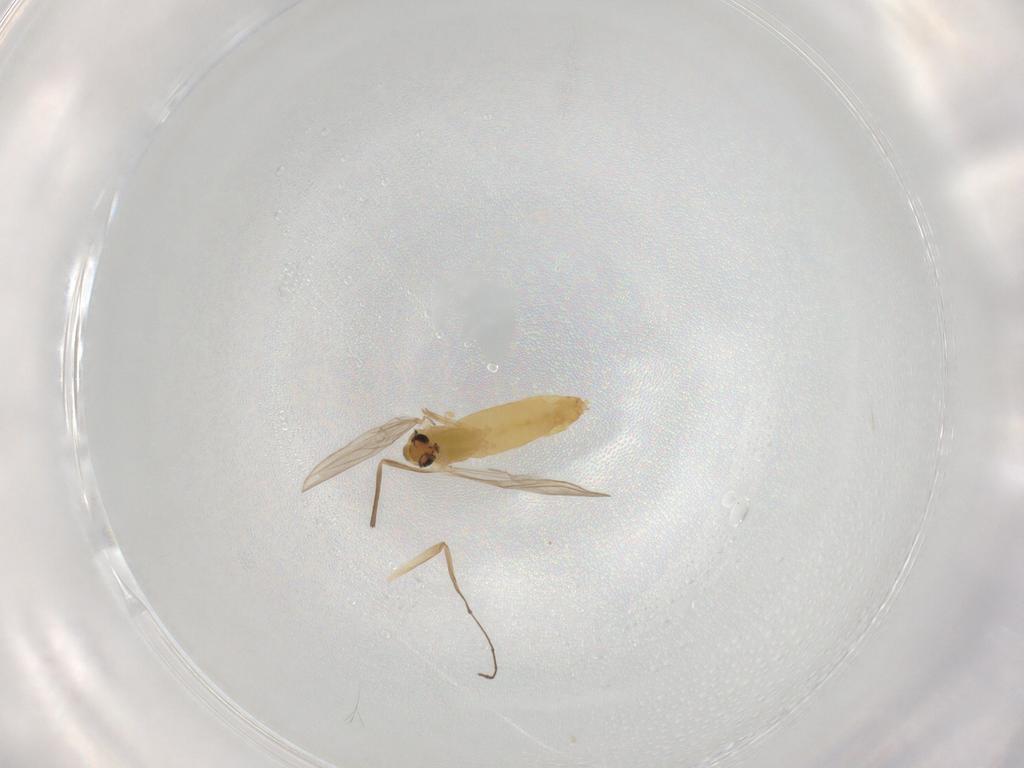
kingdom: Animalia
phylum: Arthropoda
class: Insecta
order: Diptera
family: Chironomidae
